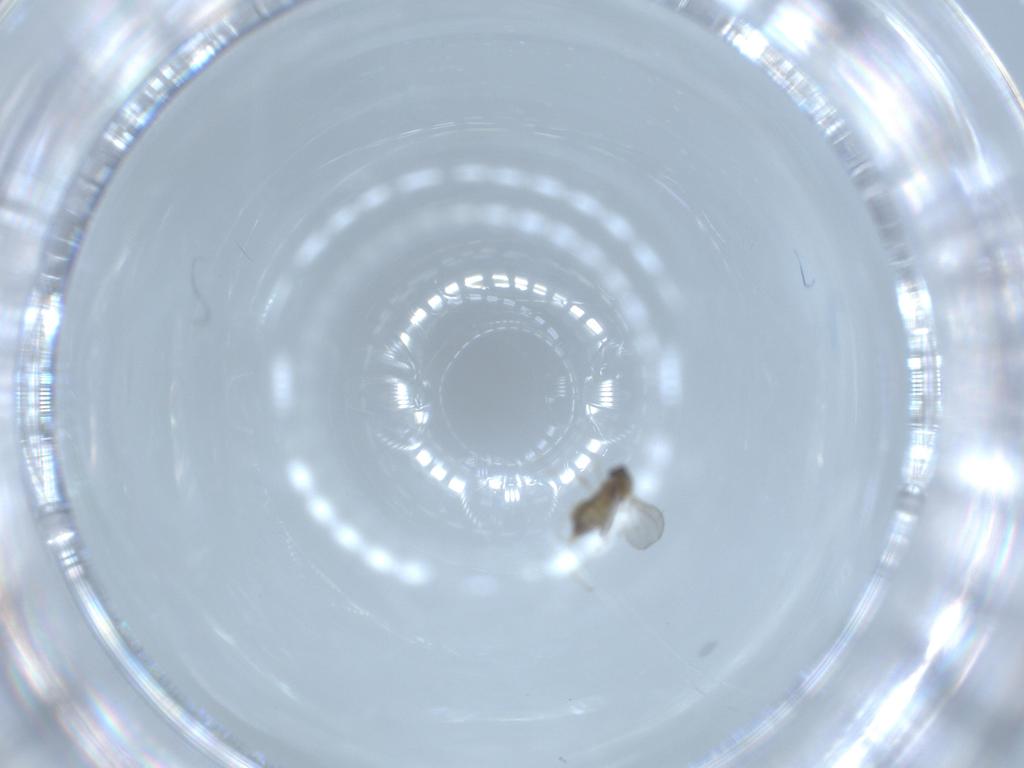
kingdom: Animalia
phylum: Arthropoda
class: Insecta
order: Diptera
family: Cecidomyiidae
